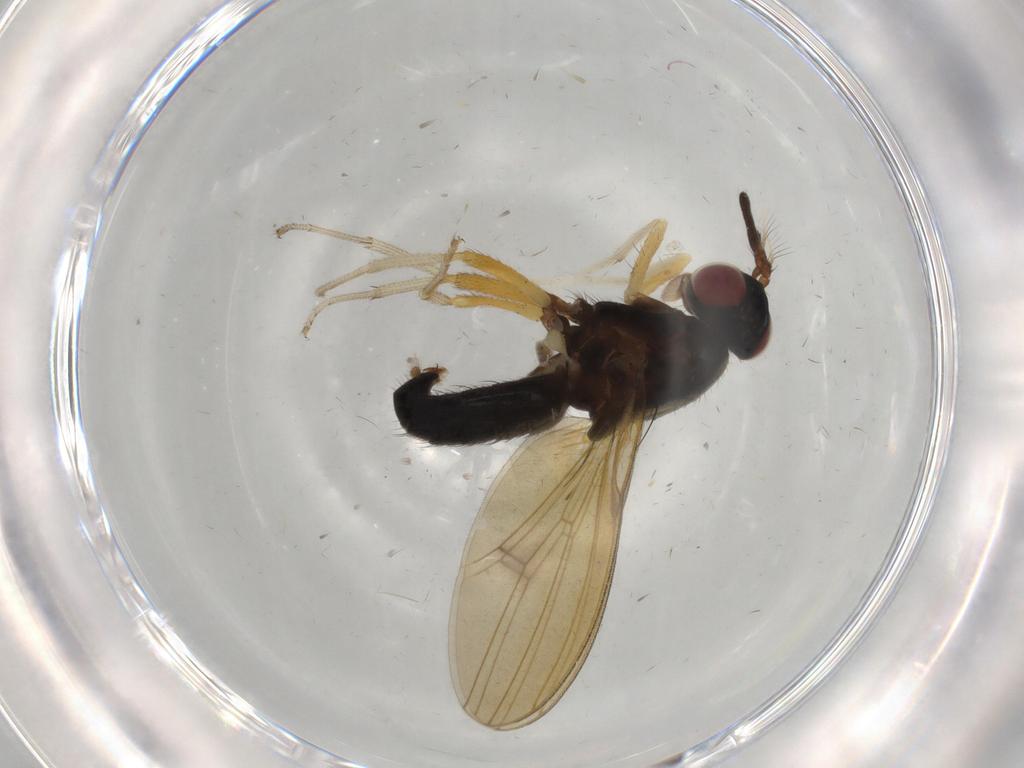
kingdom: Animalia
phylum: Arthropoda
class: Insecta
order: Diptera
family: Lauxaniidae
